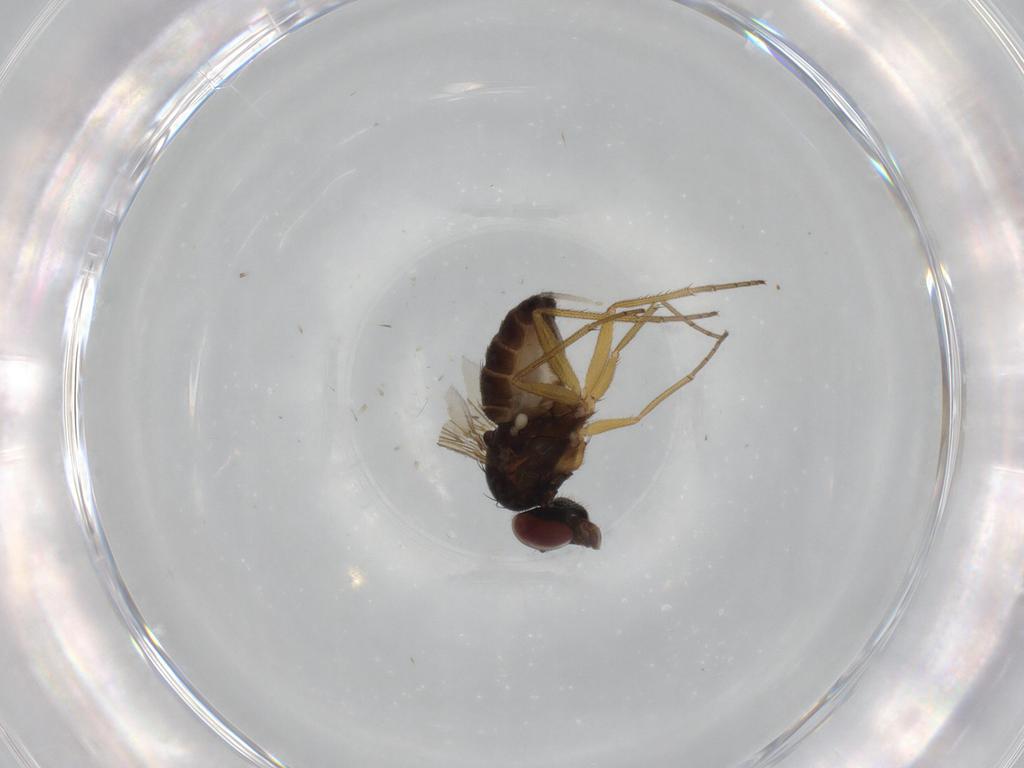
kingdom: Animalia
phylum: Arthropoda
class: Insecta
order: Diptera
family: Dolichopodidae
